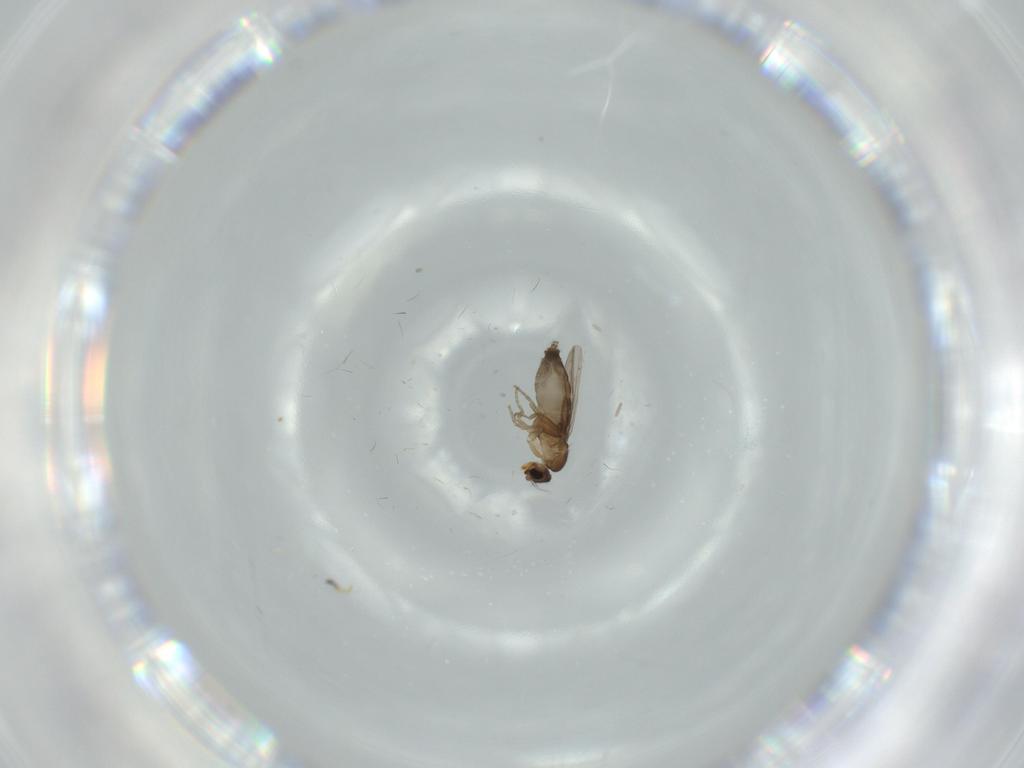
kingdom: Animalia
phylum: Arthropoda
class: Insecta
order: Diptera
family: Phoridae
